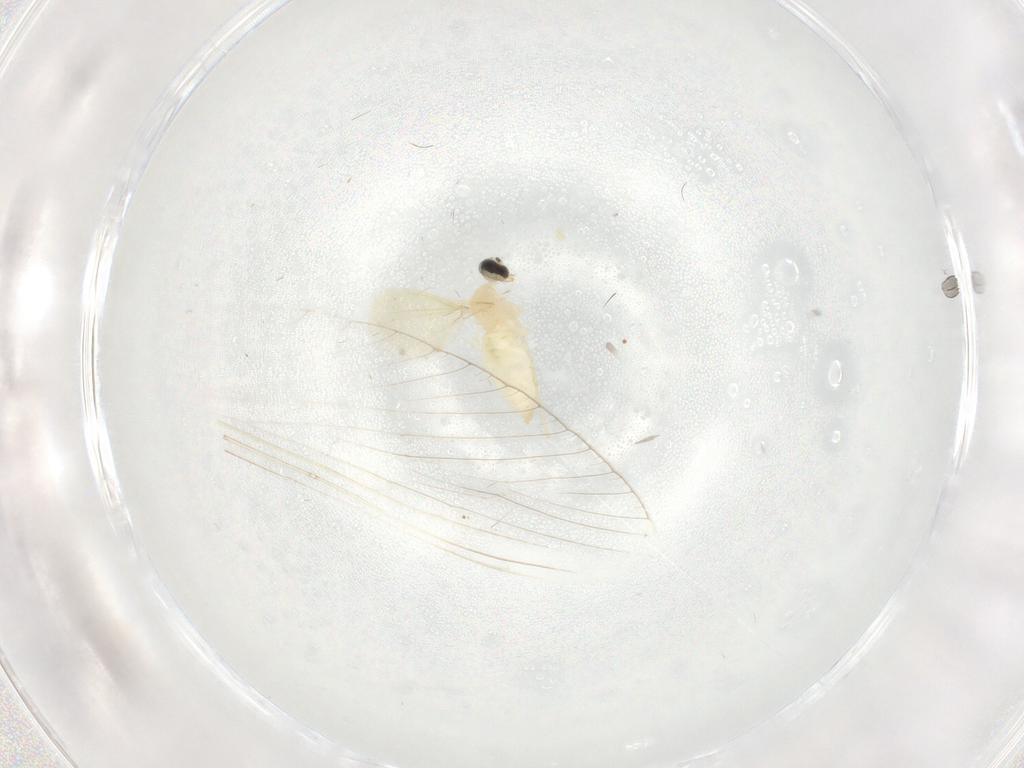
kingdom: Animalia
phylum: Arthropoda
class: Insecta
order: Diptera
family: Cecidomyiidae
